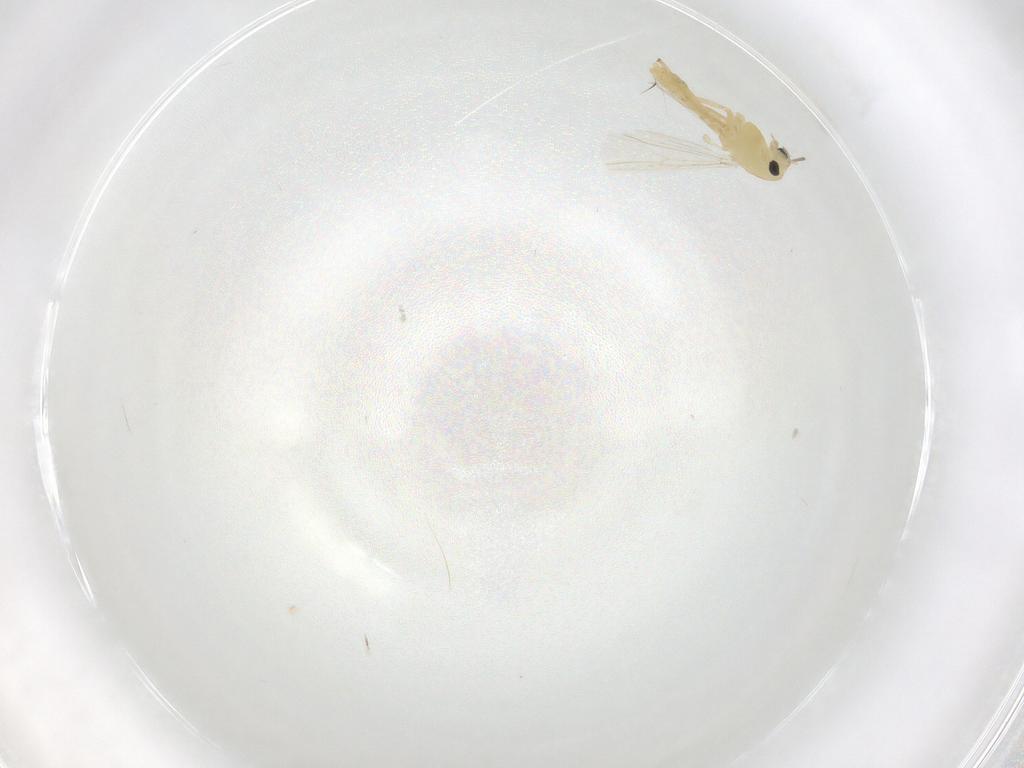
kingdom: Animalia
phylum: Arthropoda
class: Insecta
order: Diptera
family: Chironomidae
